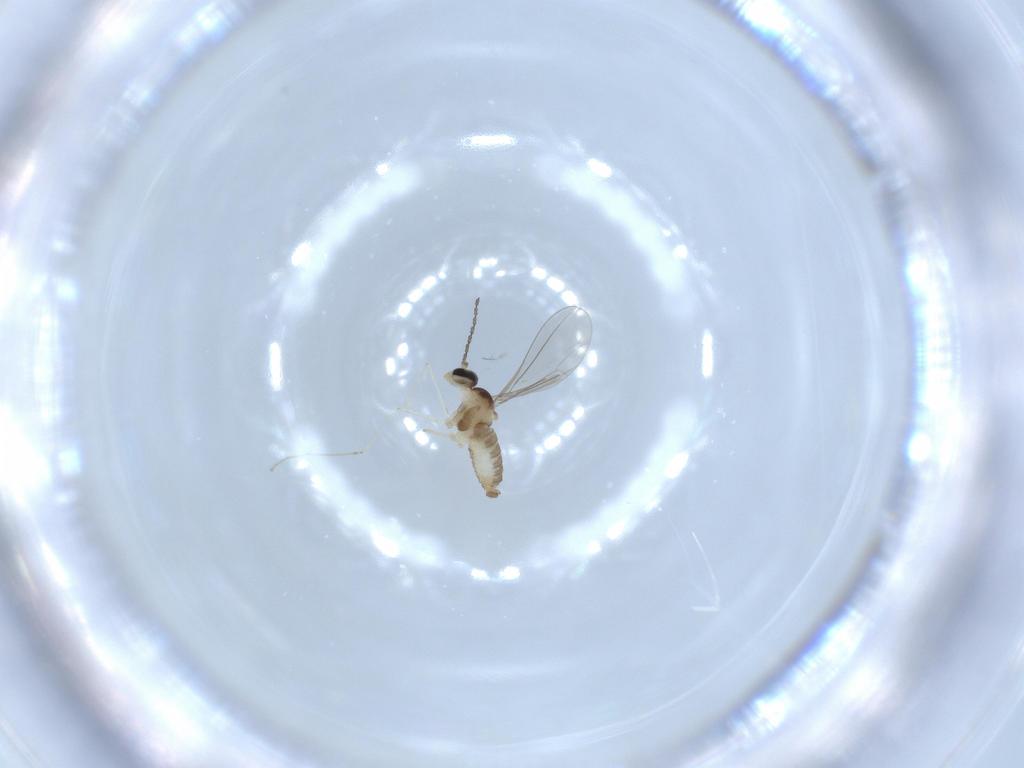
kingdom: Animalia
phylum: Arthropoda
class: Insecta
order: Diptera
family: Cecidomyiidae
